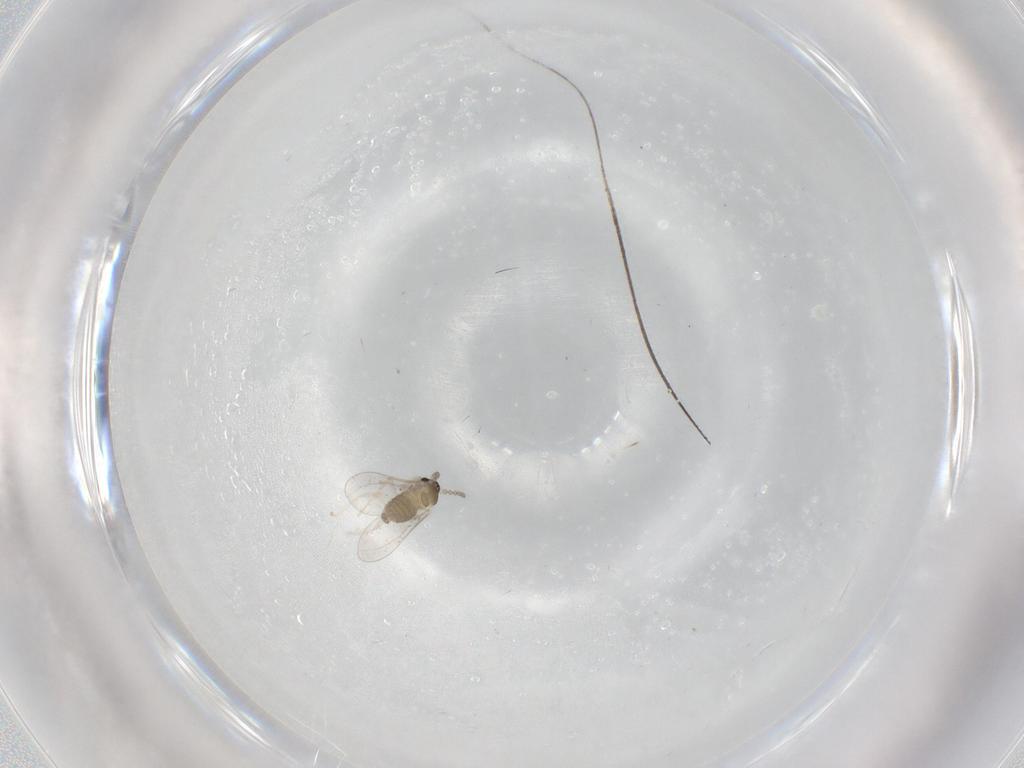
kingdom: Animalia
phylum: Arthropoda
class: Insecta
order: Diptera
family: Cecidomyiidae
